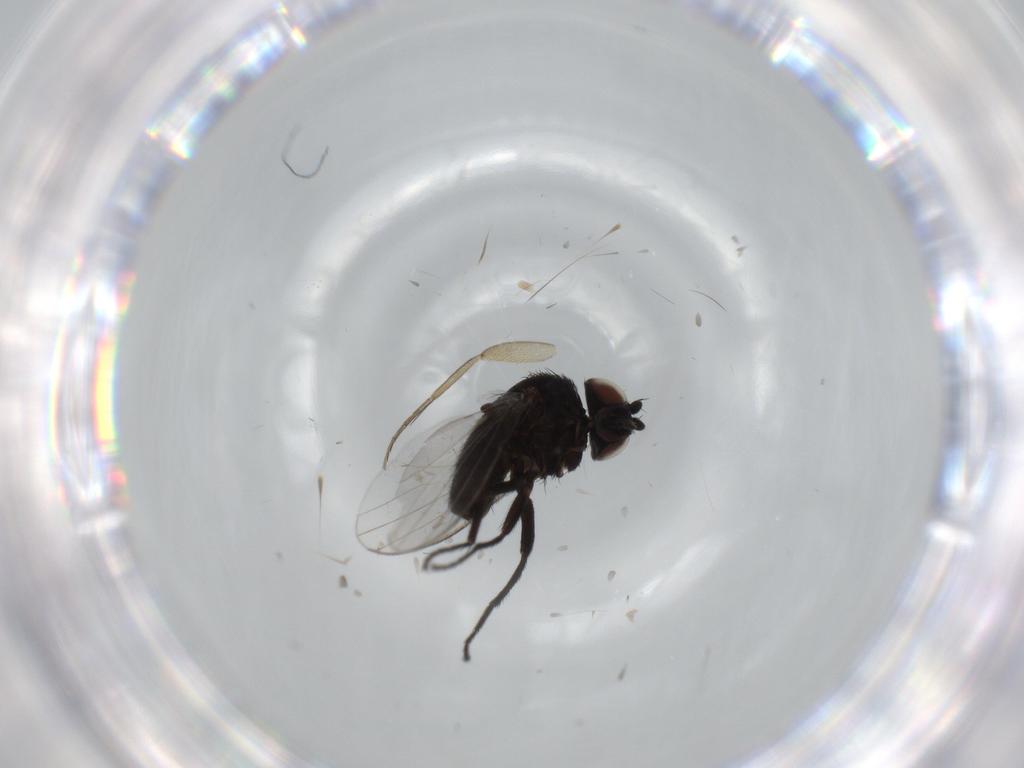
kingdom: Animalia
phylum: Arthropoda
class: Insecta
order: Diptera
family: Milichiidae
